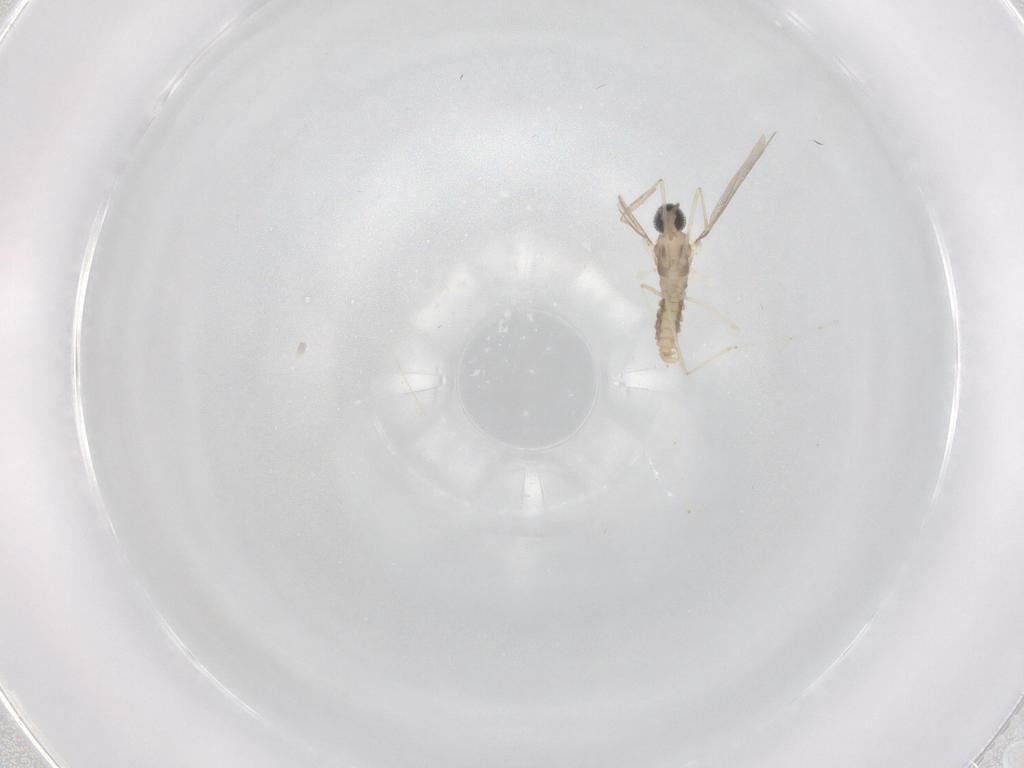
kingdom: Animalia
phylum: Arthropoda
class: Insecta
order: Diptera
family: Cecidomyiidae
